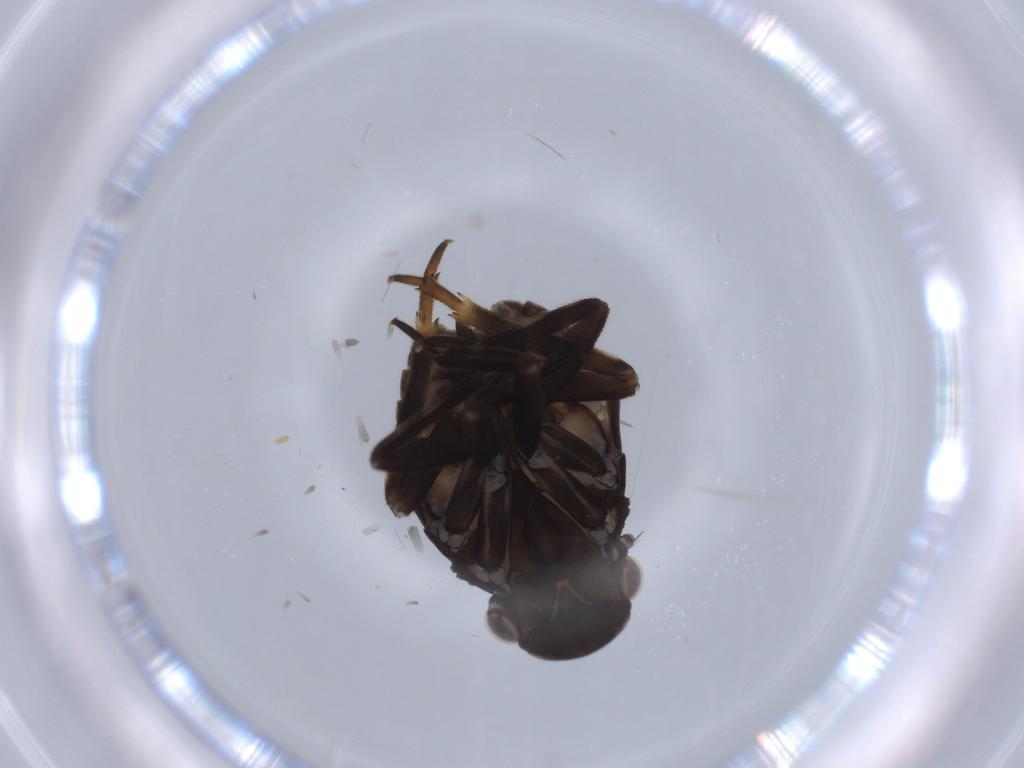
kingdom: Animalia
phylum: Arthropoda
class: Insecta
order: Hemiptera
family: Fulgoridae
